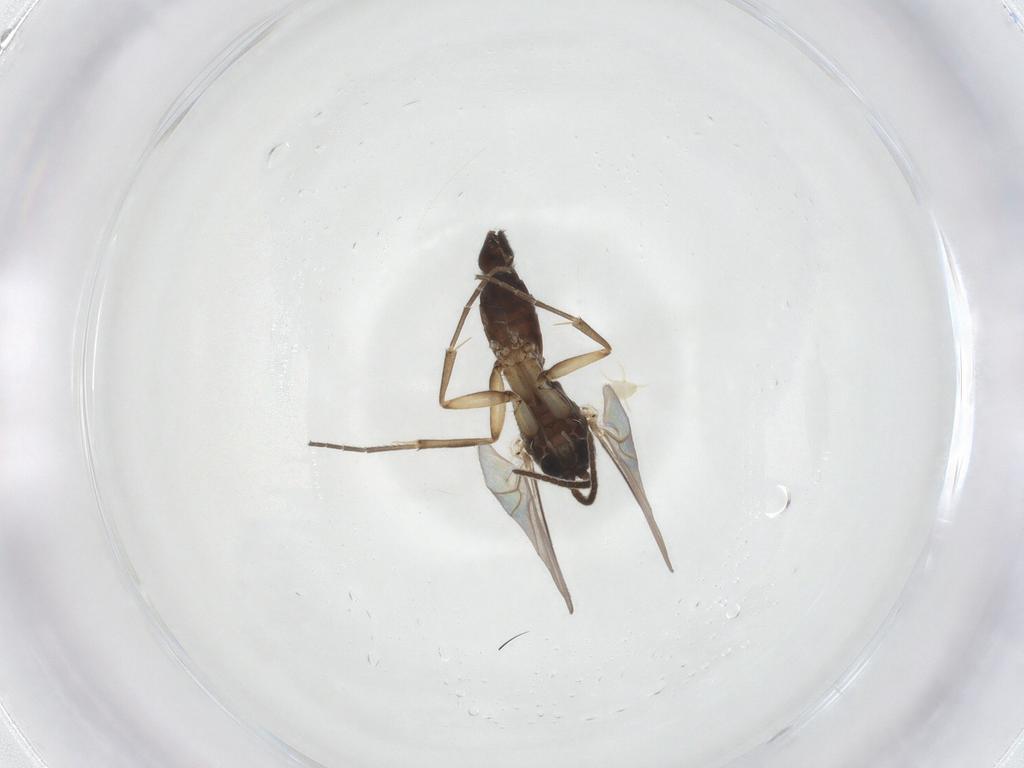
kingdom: Animalia
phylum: Arthropoda
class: Insecta
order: Diptera
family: Mycetophilidae
